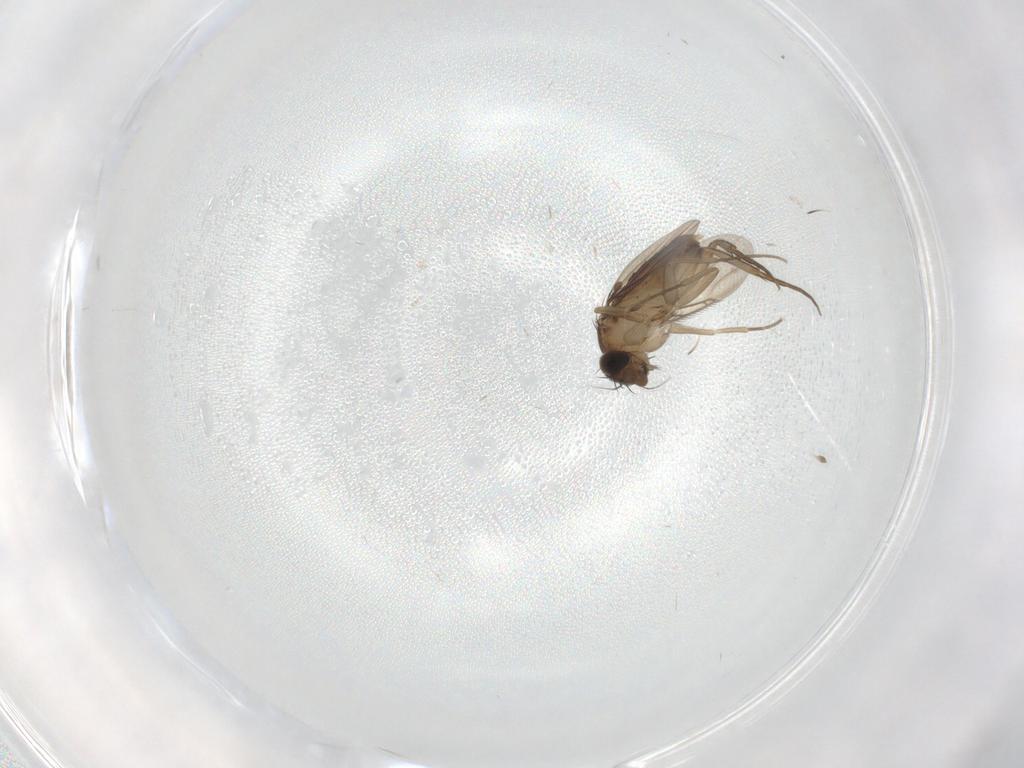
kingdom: Animalia
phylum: Arthropoda
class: Insecta
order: Diptera
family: Phoridae
